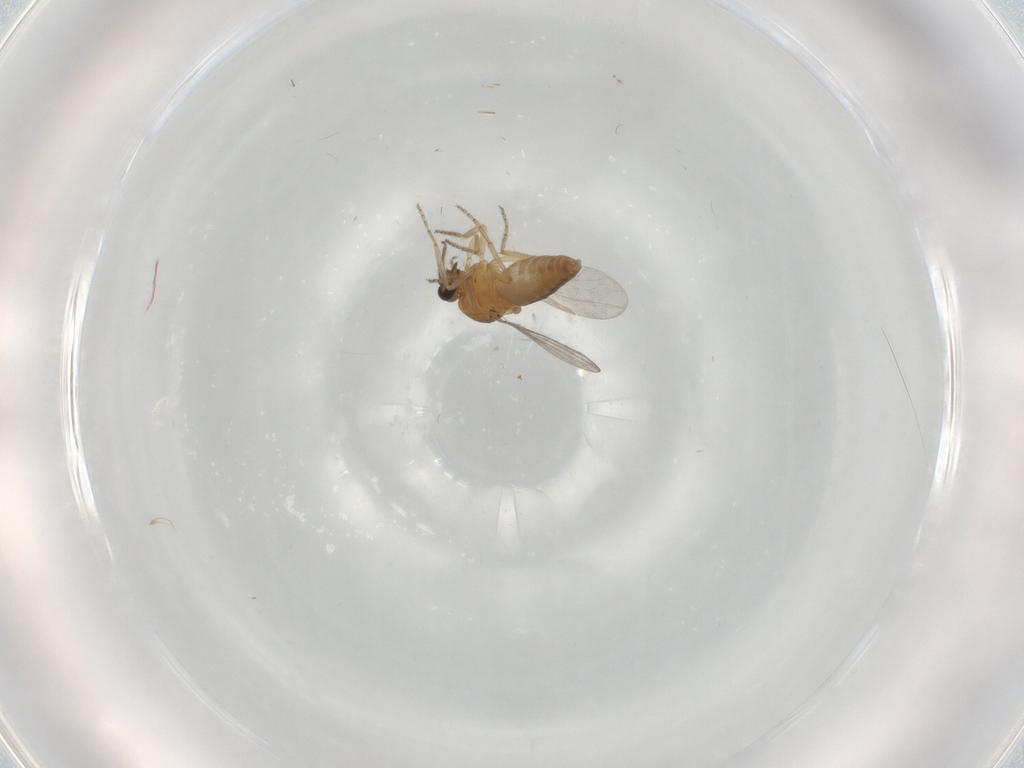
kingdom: Animalia
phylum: Arthropoda
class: Insecta
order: Diptera
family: Ceratopogonidae
